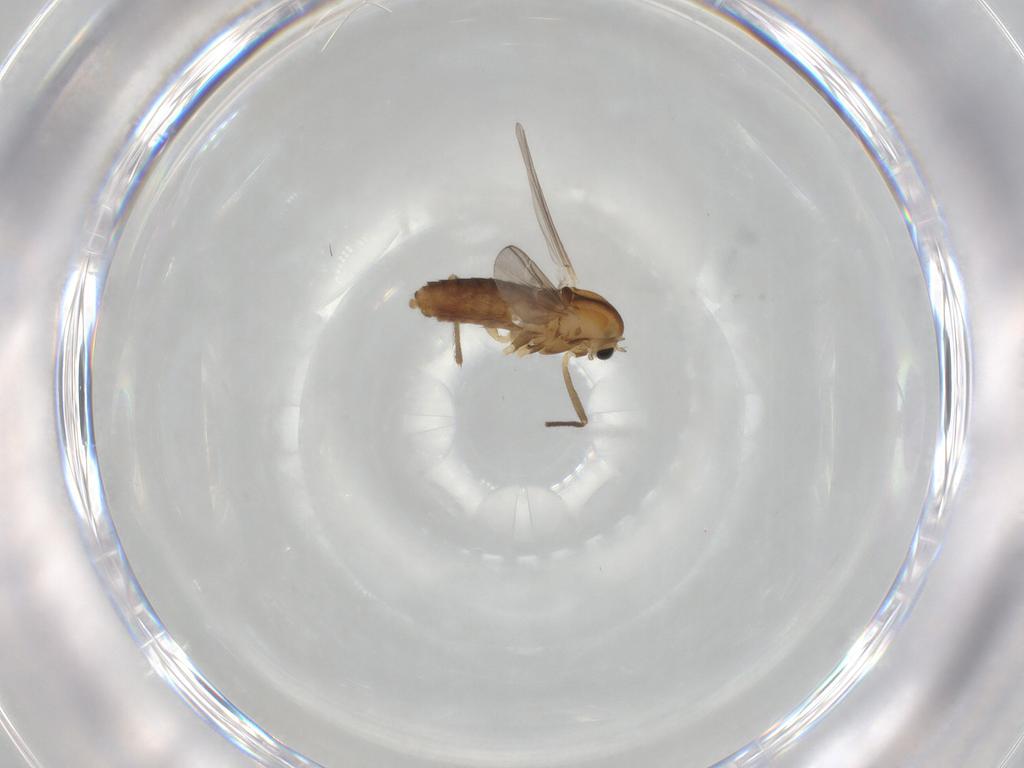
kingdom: Animalia
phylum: Arthropoda
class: Insecta
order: Diptera
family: Chironomidae
